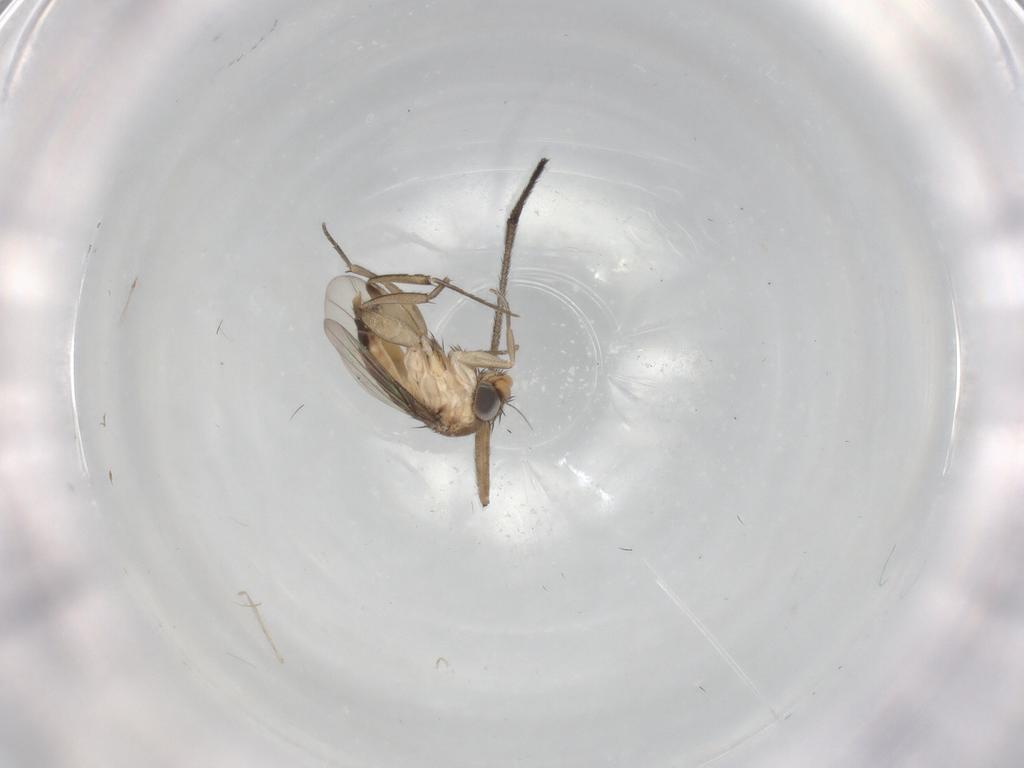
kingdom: Animalia
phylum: Arthropoda
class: Insecta
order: Diptera
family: Phoridae
